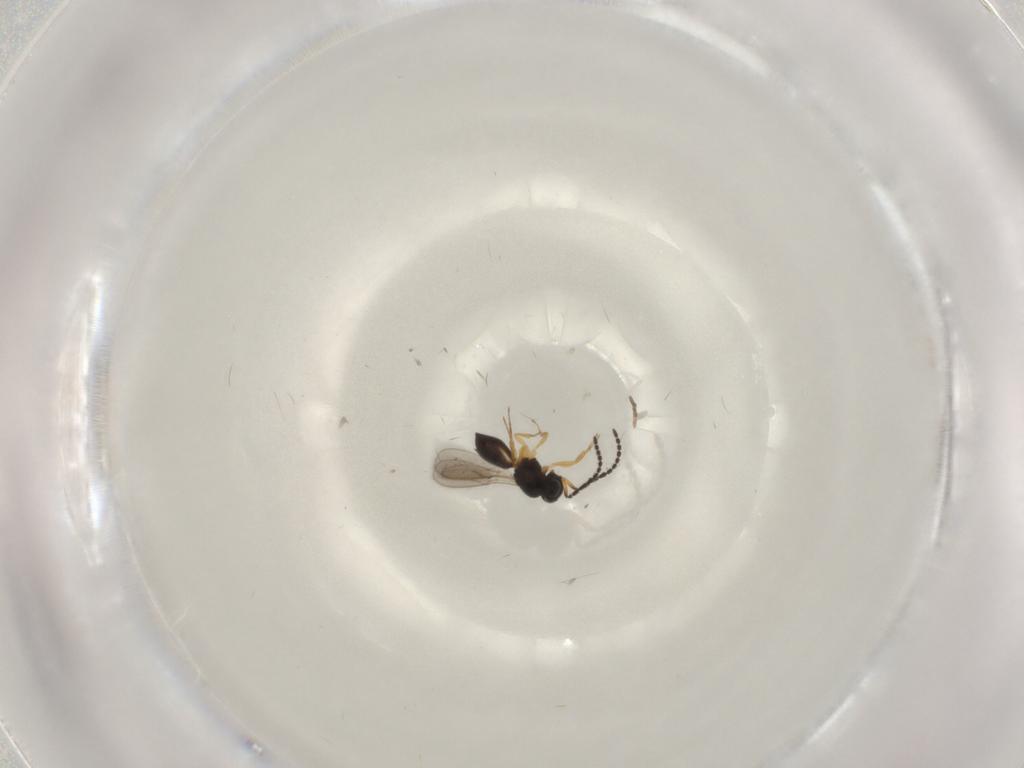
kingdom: Animalia
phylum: Arthropoda
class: Insecta
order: Hymenoptera
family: Scelionidae
